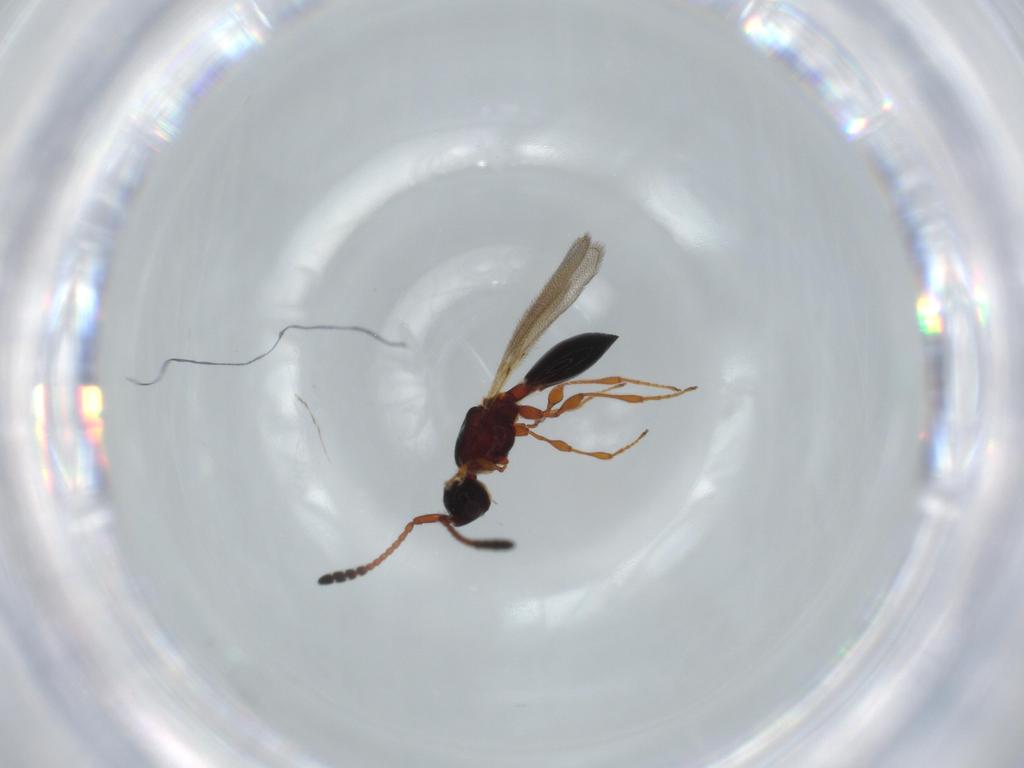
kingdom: Animalia
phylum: Arthropoda
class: Insecta
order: Hymenoptera
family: Diapriidae
